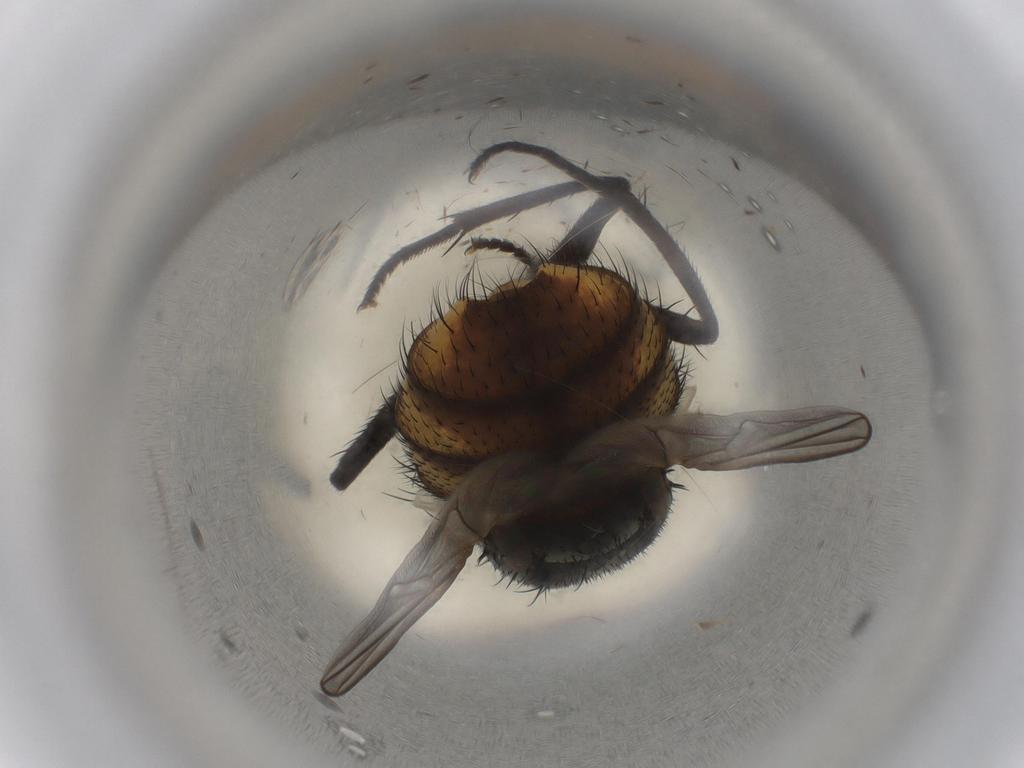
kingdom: Animalia
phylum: Arthropoda
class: Insecta
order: Diptera
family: Muscidae
